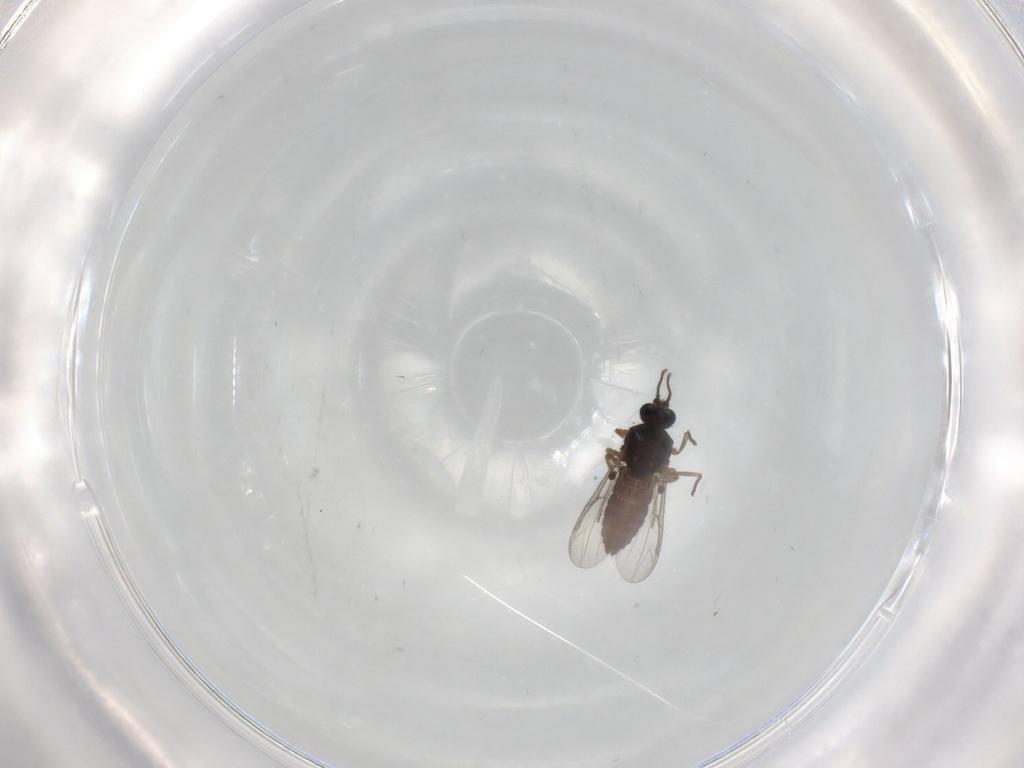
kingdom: Animalia
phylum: Arthropoda
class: Insecta
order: Diptera
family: Ceratopogonidae
